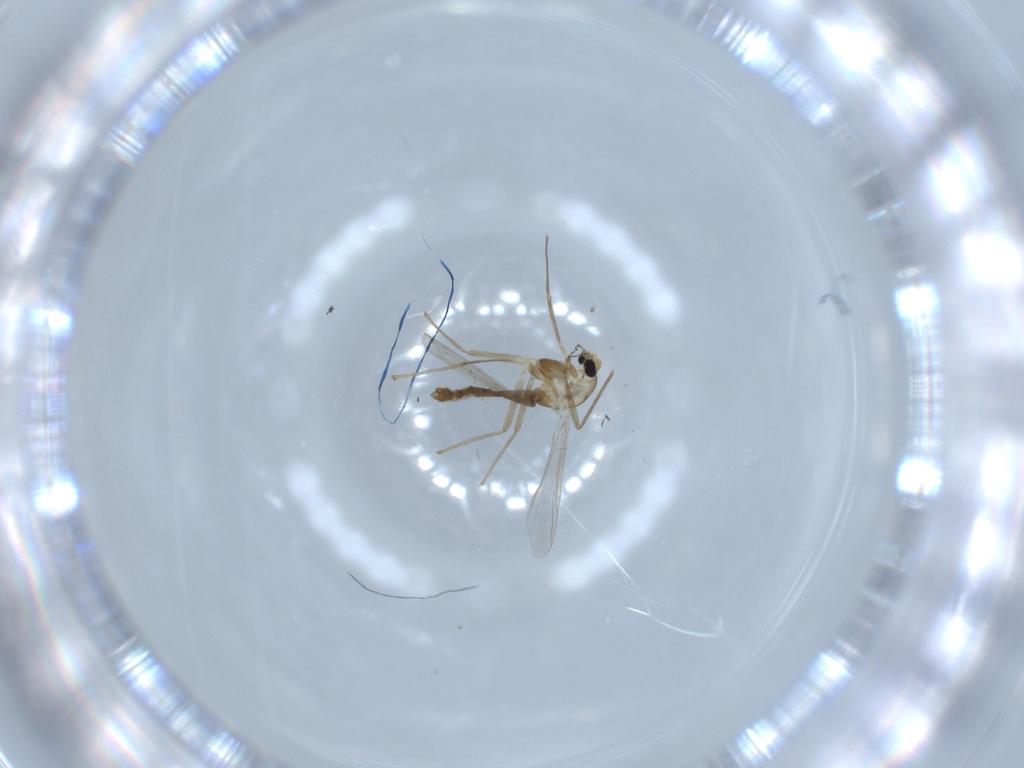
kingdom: Animalia
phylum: Arthropoda
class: Insecta
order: Diptera
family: Chironomidae
